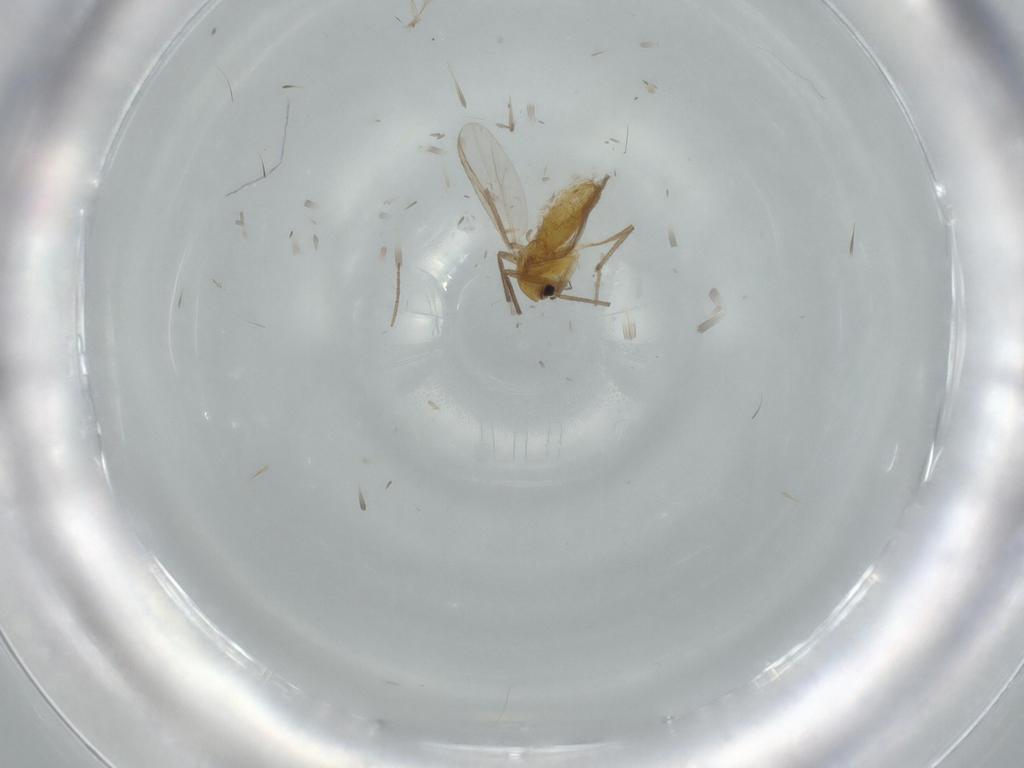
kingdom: Animalia
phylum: Arthropoda
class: Insecta
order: Diptera
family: Chironomidae
